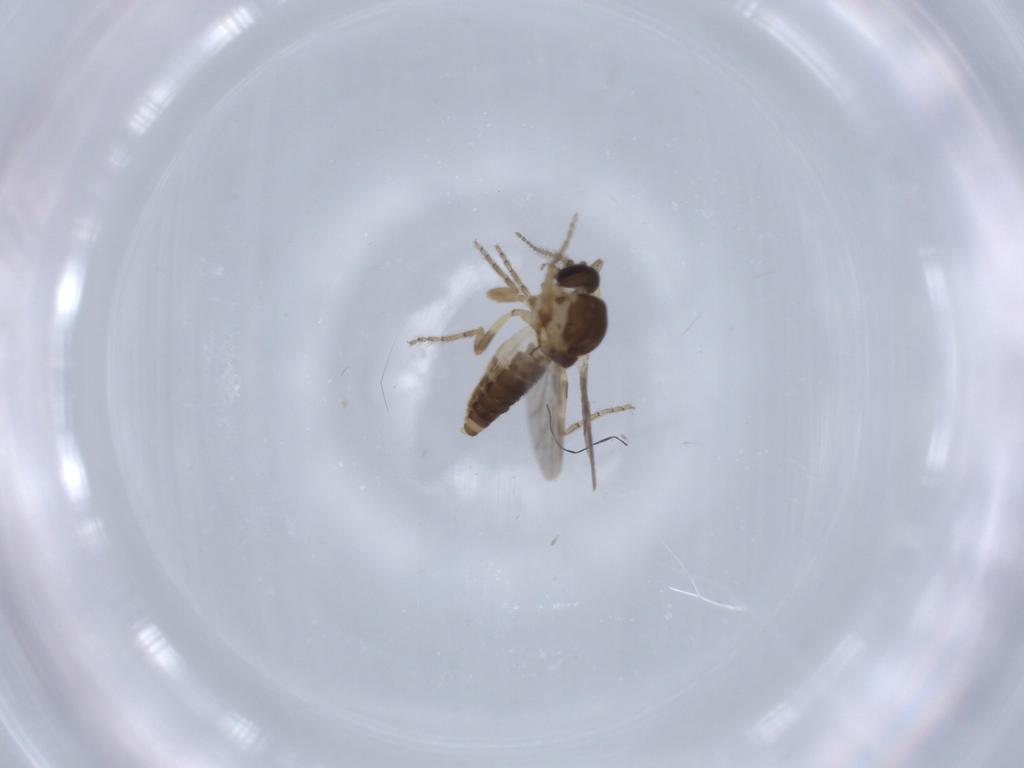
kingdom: Animalia
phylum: Arthropoda
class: Insecta
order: Diptera
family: Ceratopogonidae
